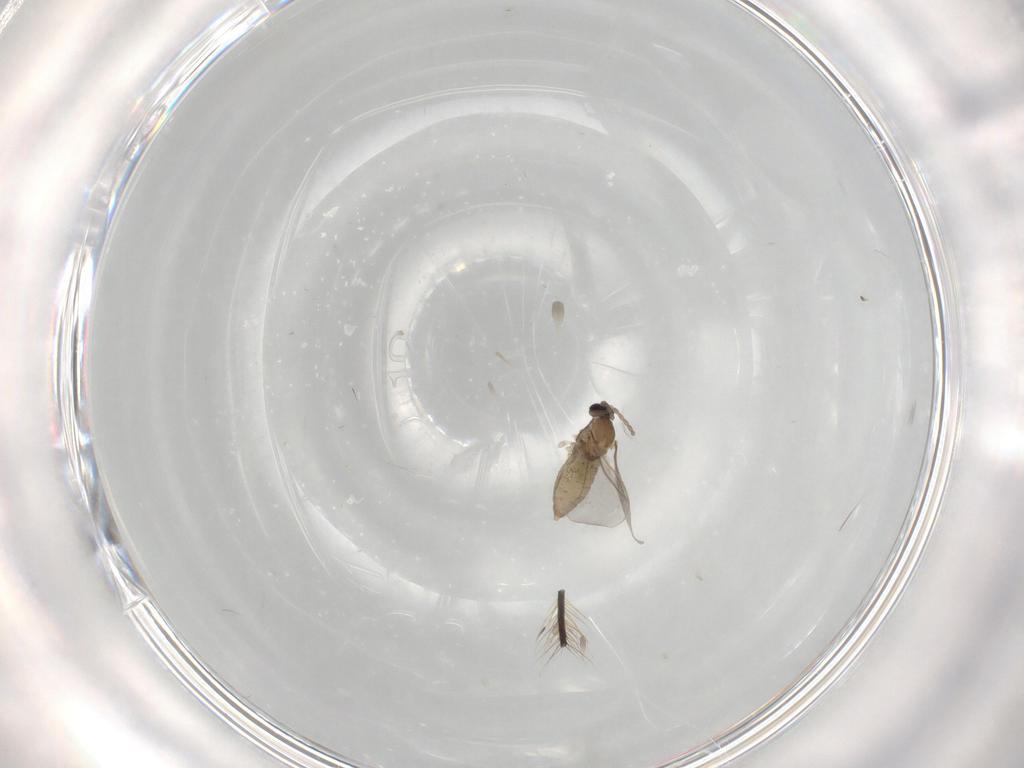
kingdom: Animalia
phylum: Arthropoda
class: Insecta
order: Diptera
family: Cecidomyiidae
